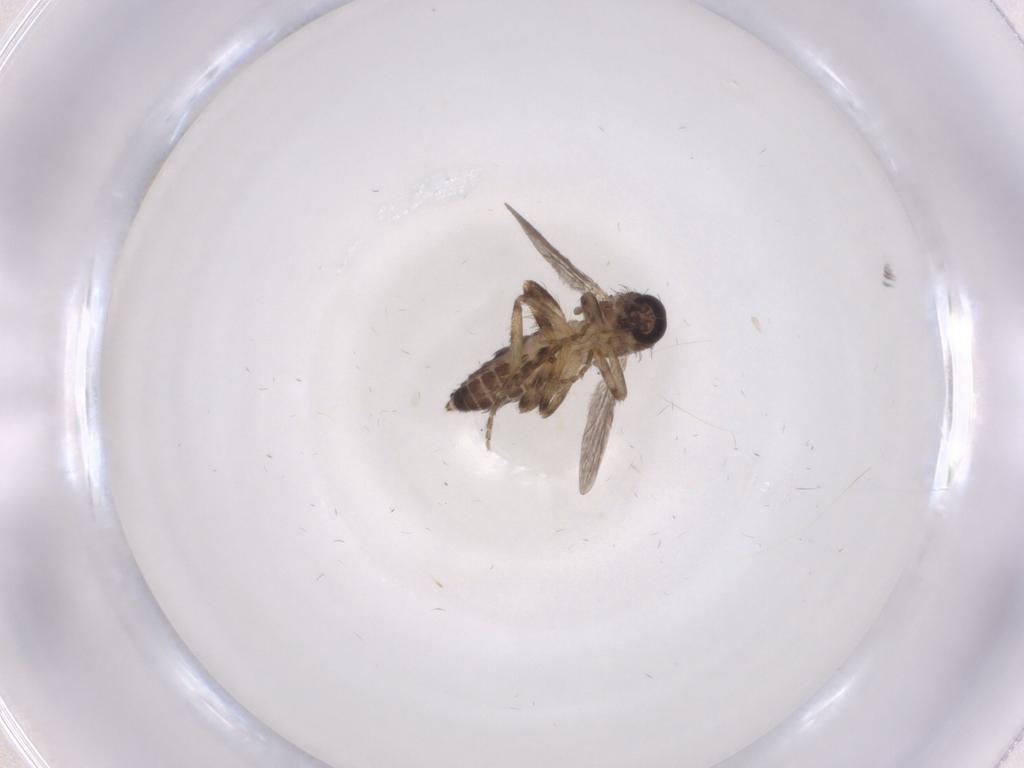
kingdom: Animalia
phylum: Arthropoda
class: Insecta
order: Diptera
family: Ceratopogonidae
